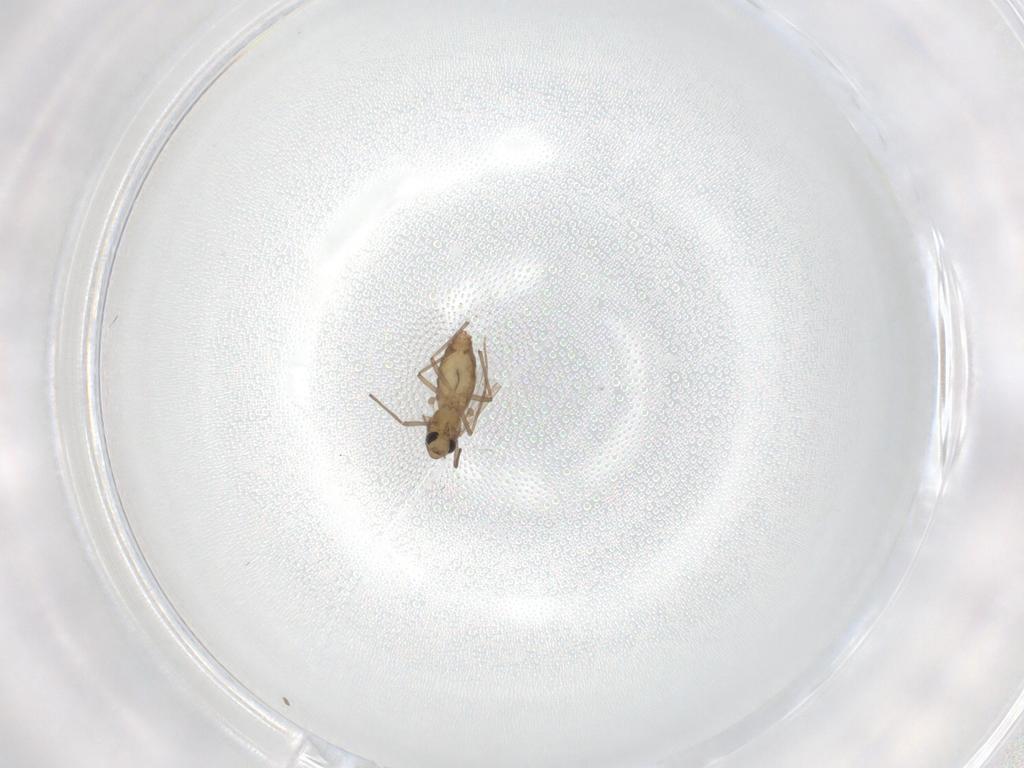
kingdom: Animalia
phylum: Arthropoda
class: Insecta
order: Diptera
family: Chironomidae
